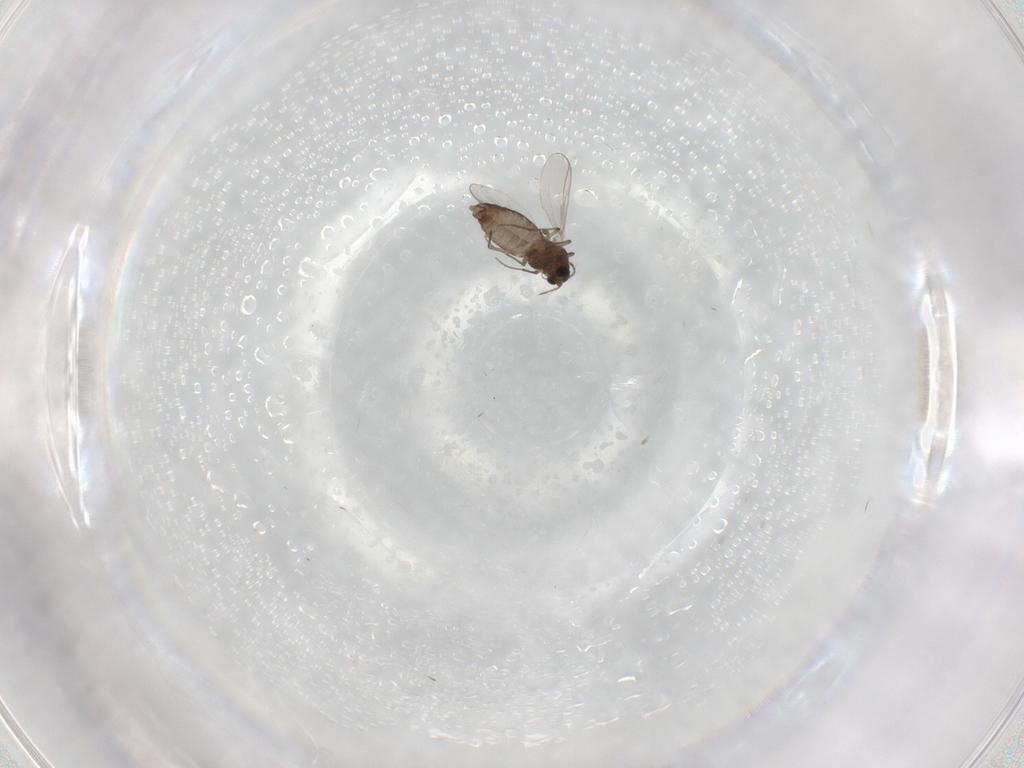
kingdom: Animalia
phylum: Arthropoda
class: Insecta
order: Diptera
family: Chironomidae
